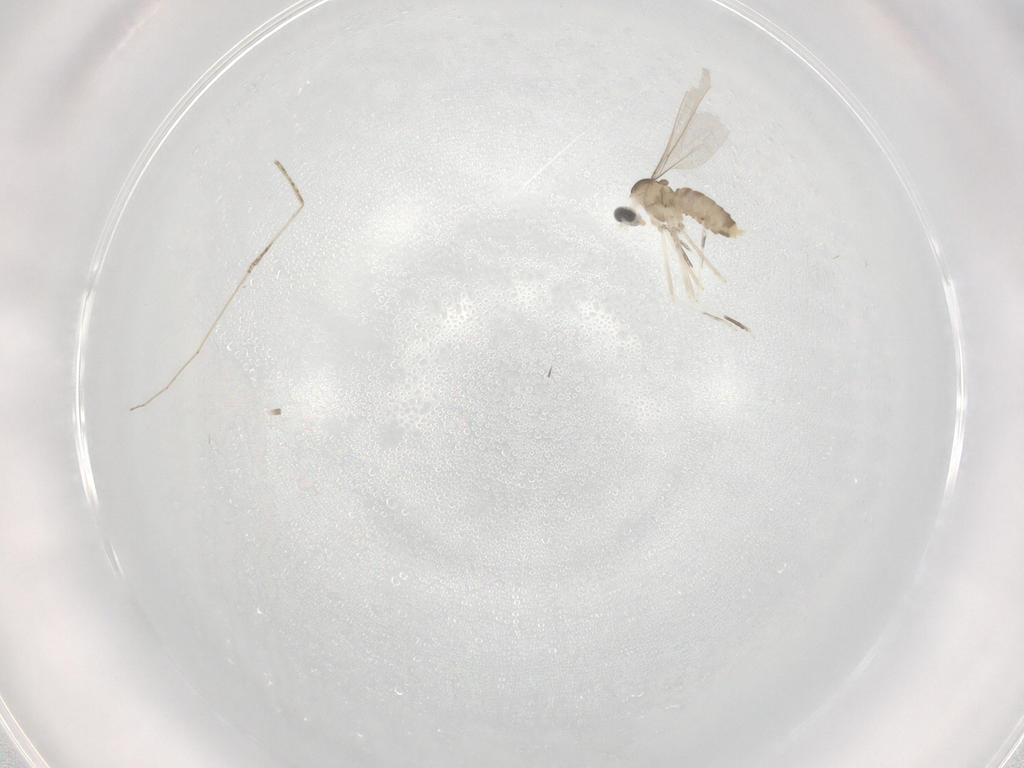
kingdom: Animalia
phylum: Arthropoda
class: Insecta
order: Diptera
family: Cecidomyiidae
